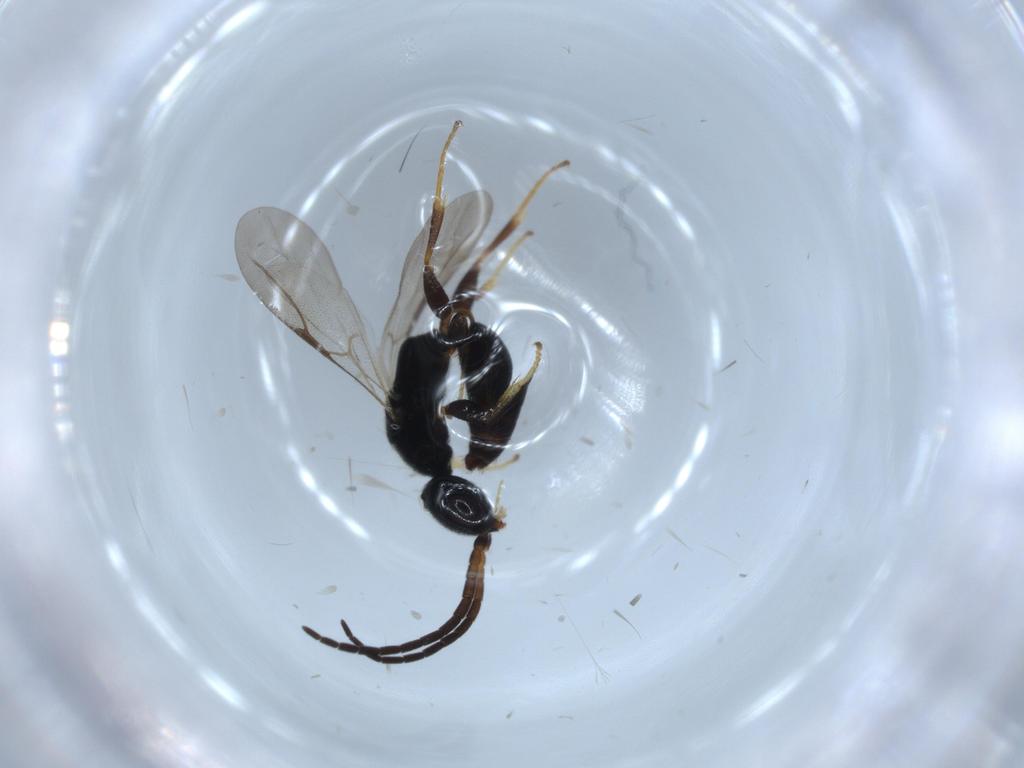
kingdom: Animalia
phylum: Arthropoda
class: Insecta
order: Hymenoptera
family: Bethylidae
